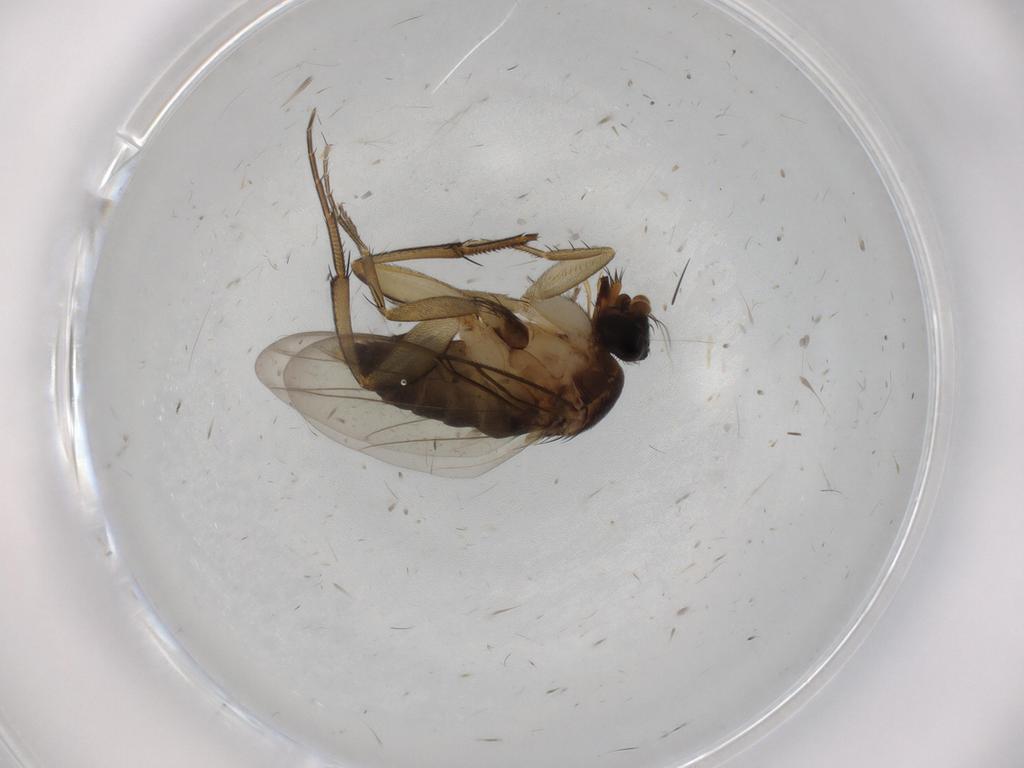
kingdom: Animalia
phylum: Arthropoda
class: Insecta
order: Diptera
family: Phoridae
